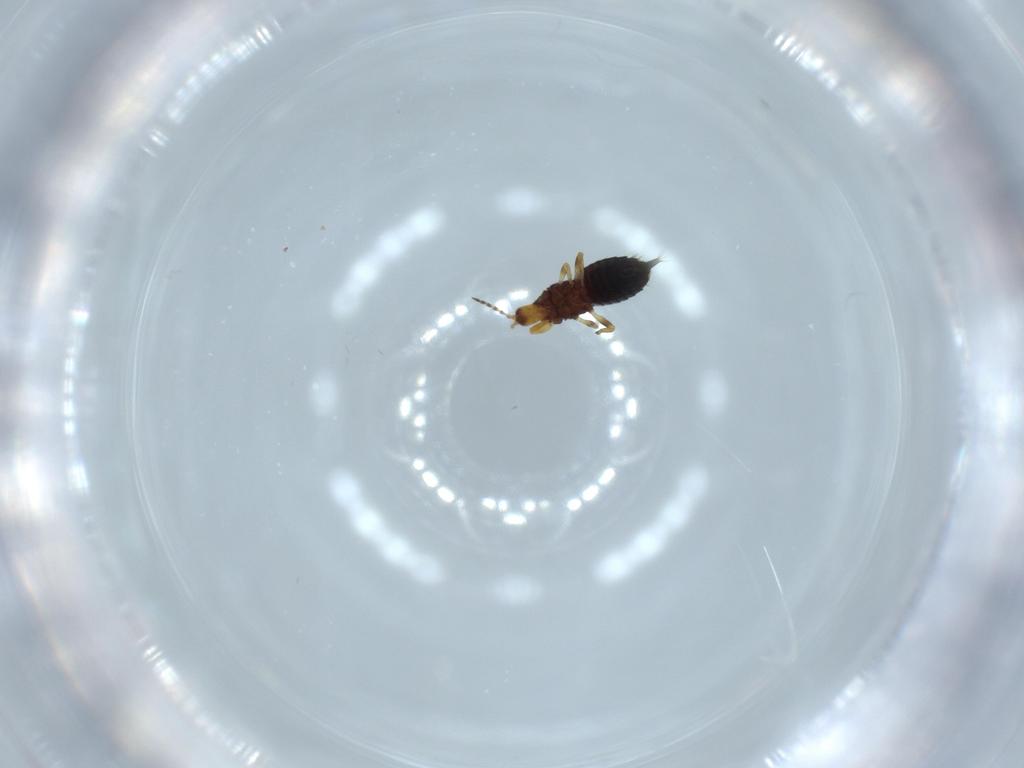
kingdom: Animalia
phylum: Arthropoda
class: Insecta
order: Thysanoptera
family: Phlaeothripidae
